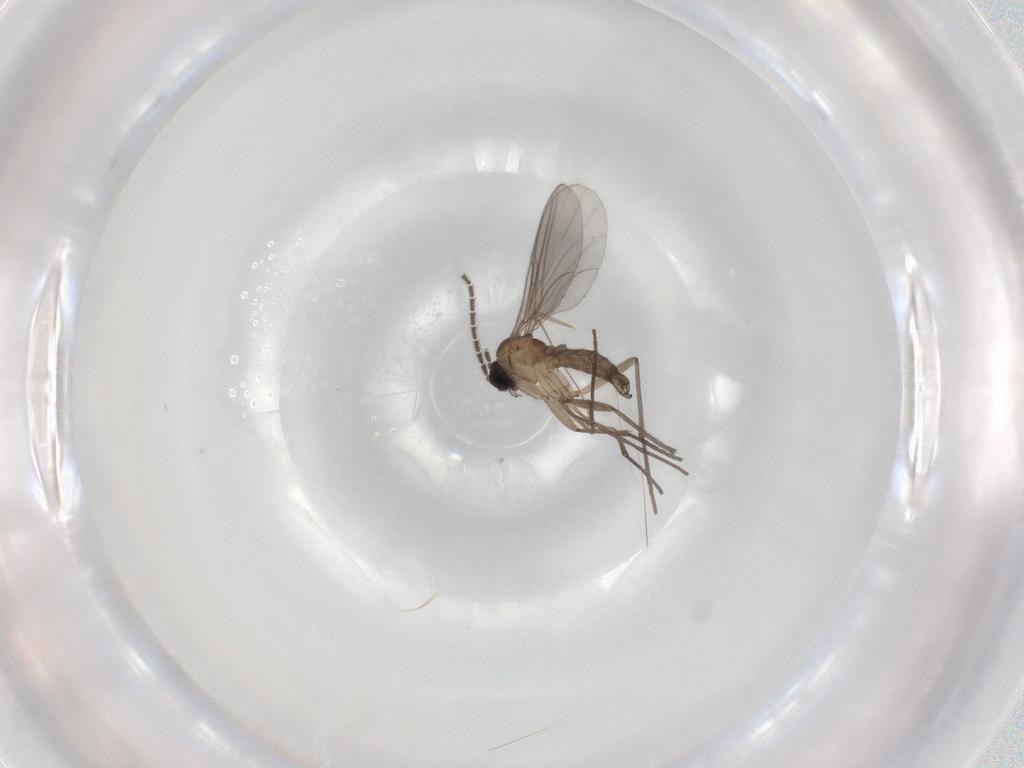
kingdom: Animalia
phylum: Arthropoda
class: Insecta
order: Diptera
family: Sciaridae
